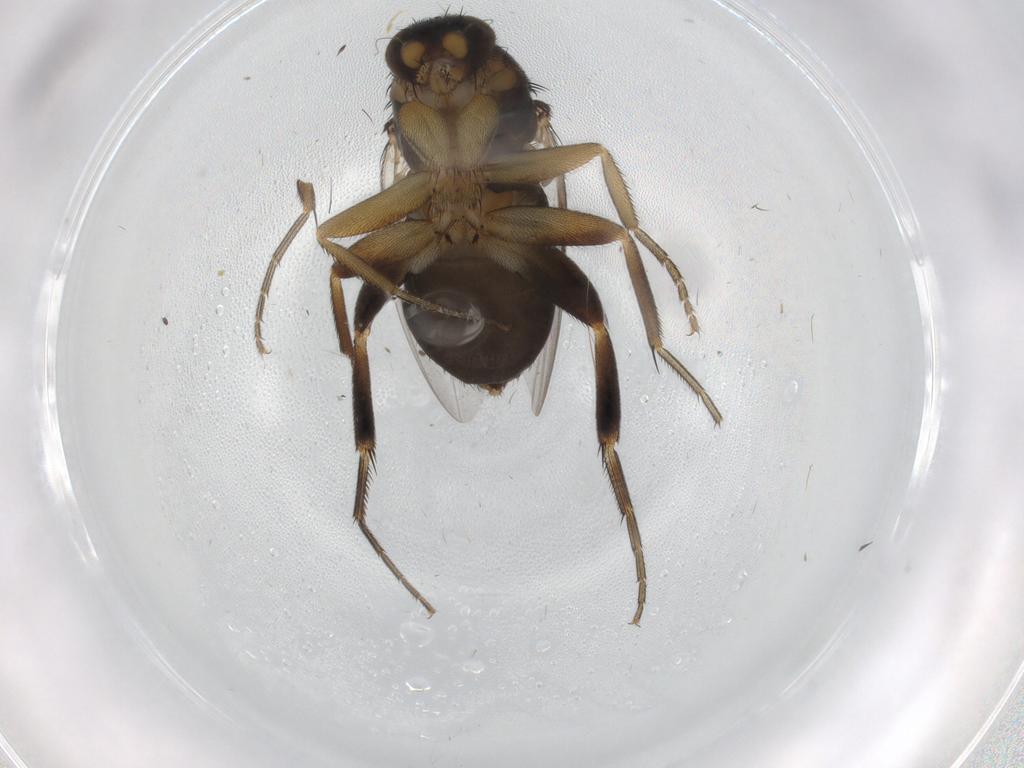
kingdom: Animalia
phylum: Arthropoda
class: Insecta
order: Diptera
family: Phoridae
